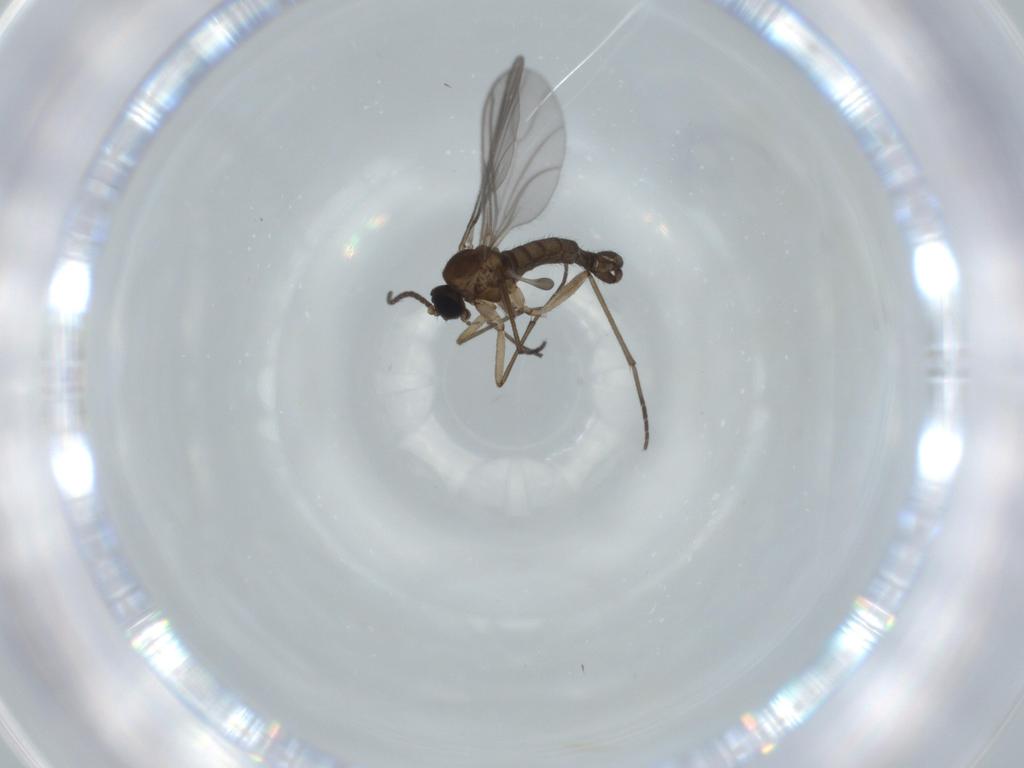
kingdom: Animalia
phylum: Arthropoda
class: Insecta
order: Diptera
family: Sciaridae
